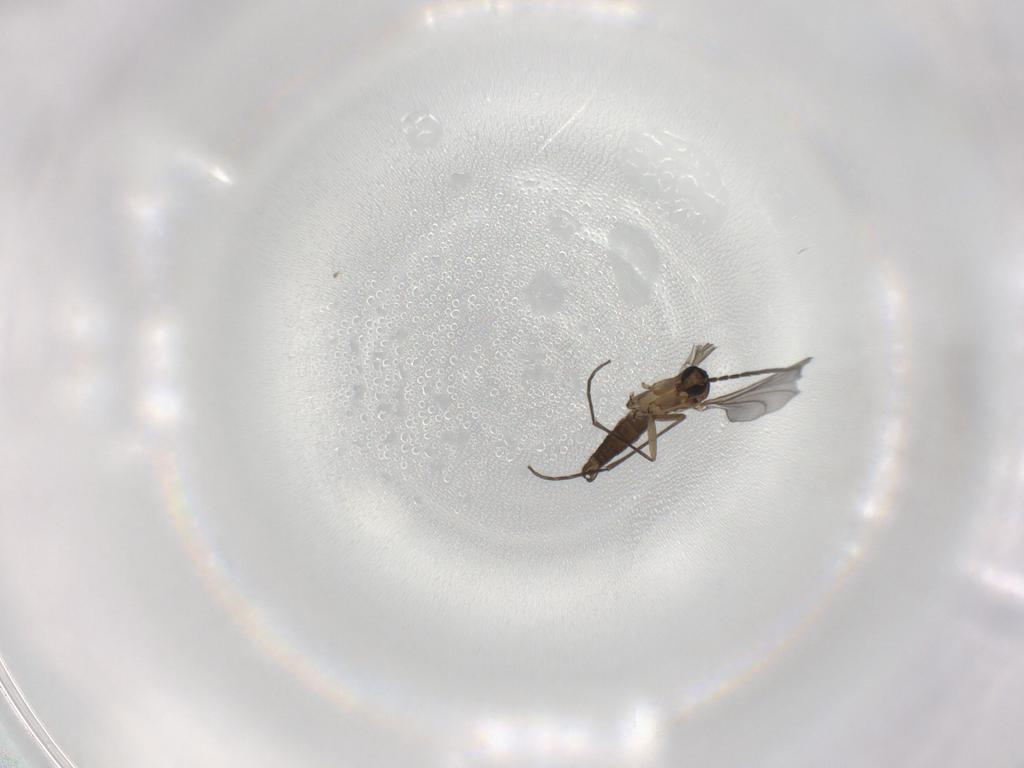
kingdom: Animalia
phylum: Arthropoda
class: Insecta
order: Diptera
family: Sciaridae
